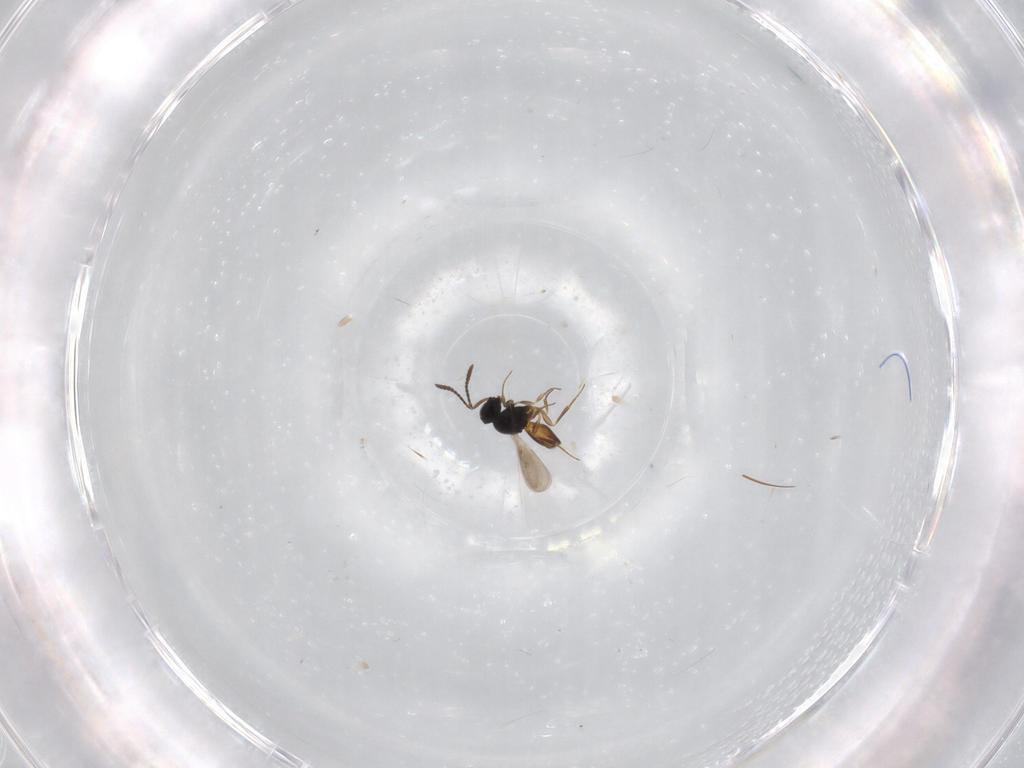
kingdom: Animalia
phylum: Arthropoda
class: Insecta
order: Hymenoptera
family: Scelionidae
